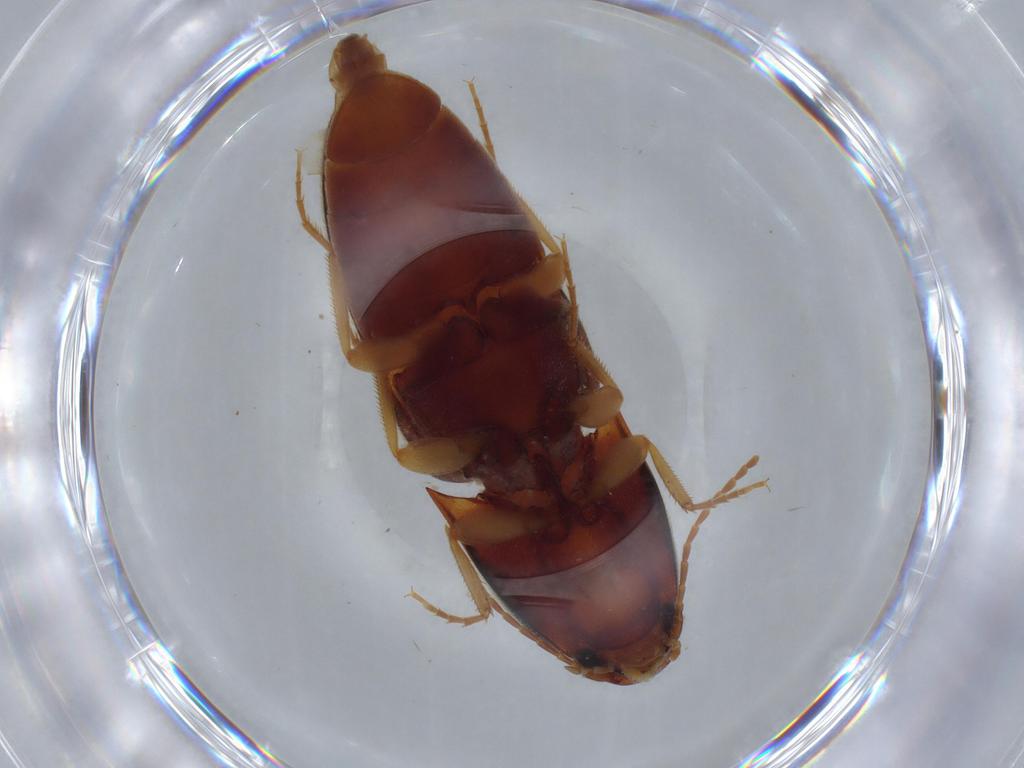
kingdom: Animalia
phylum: Arthropoda
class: Insecta
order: Coleoptera
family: Elateridae
